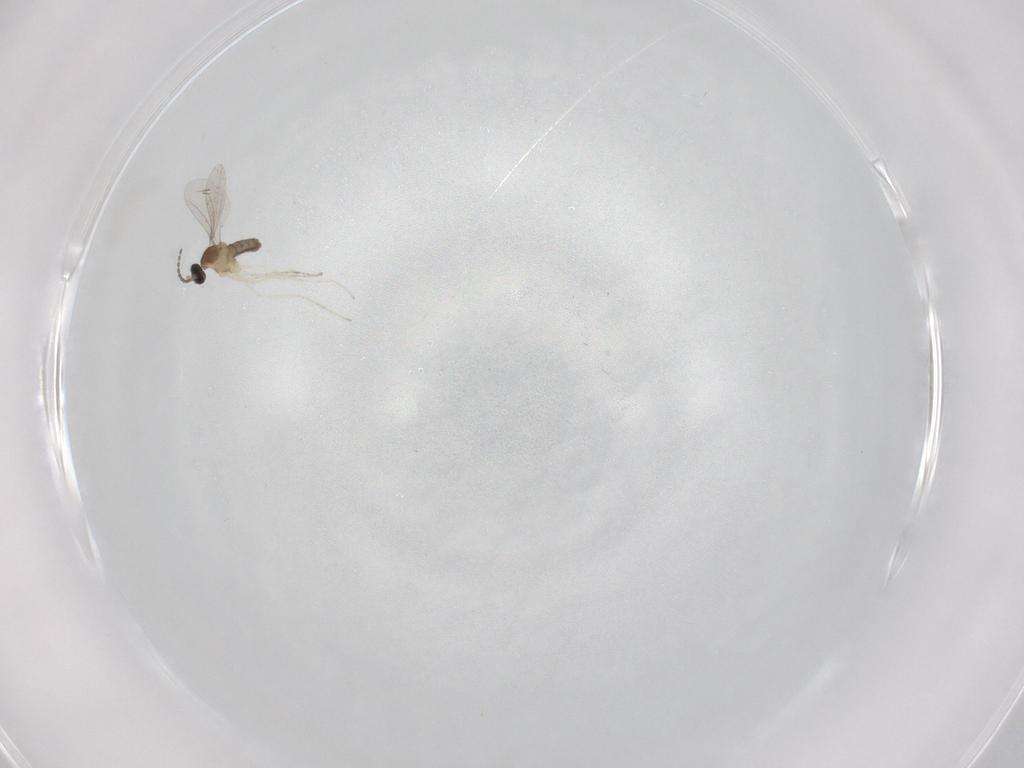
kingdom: Animalia
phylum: Arthropoda
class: Insecta
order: Diptera
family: Cecidomyiidae
